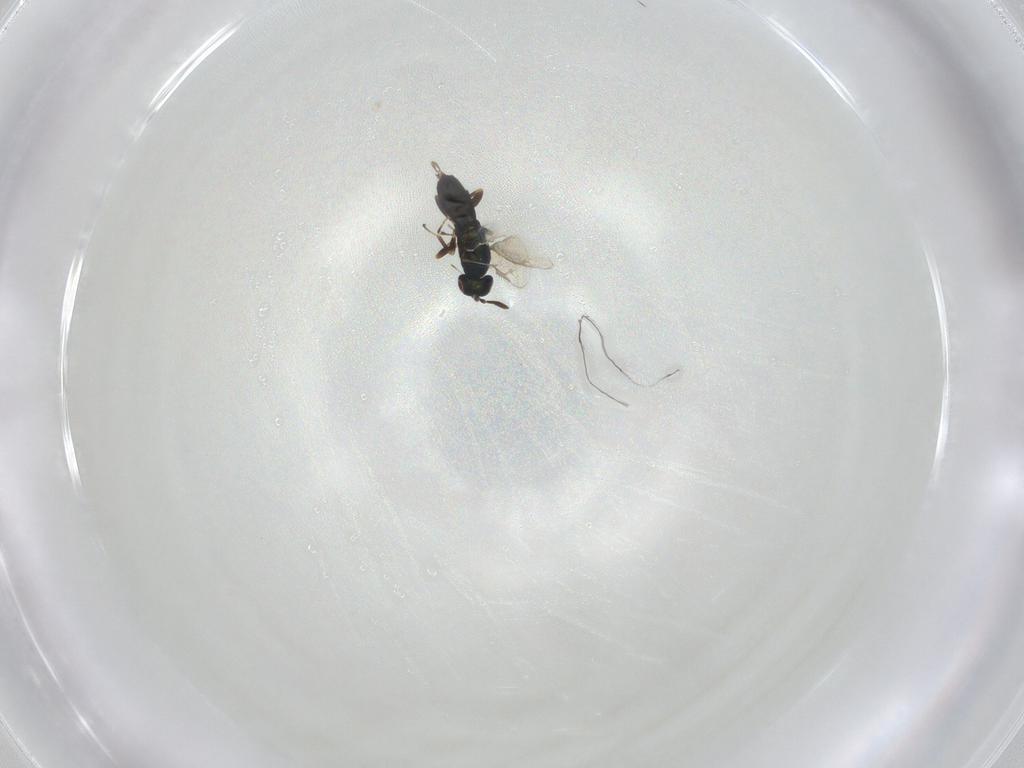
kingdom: Animalia
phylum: Arthropoda
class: Insecta
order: Hymenoptera
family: Pteromalidae
